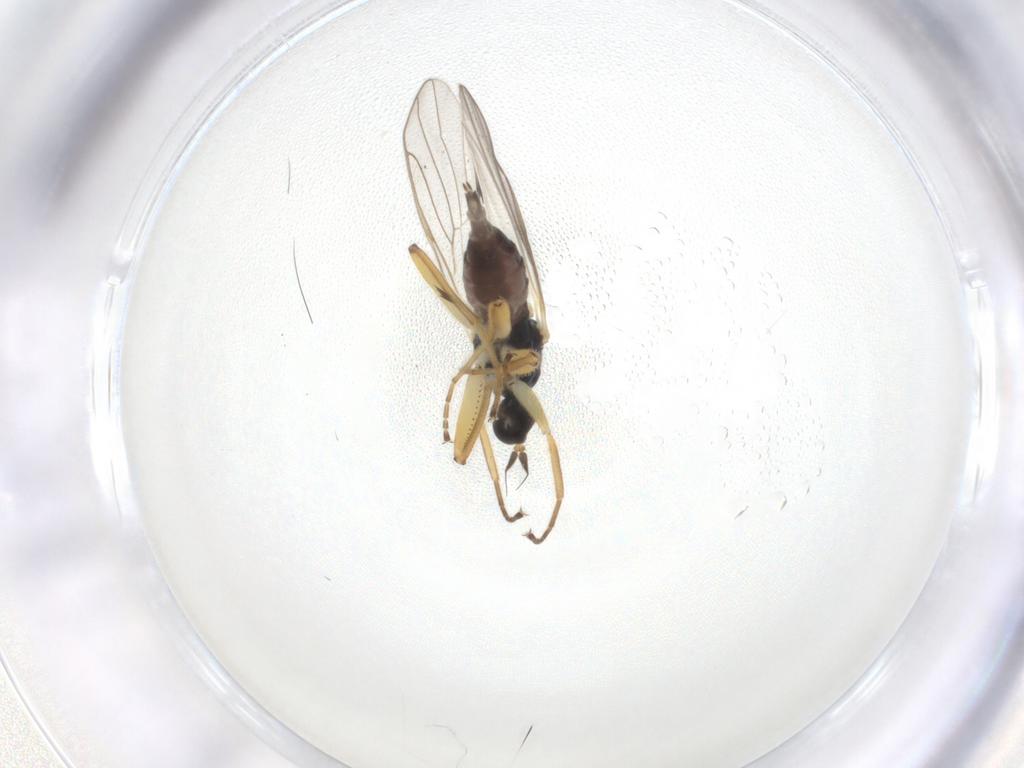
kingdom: Animalia
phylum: Arthropoda
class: Insecta
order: Diptera
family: Hybotidae
